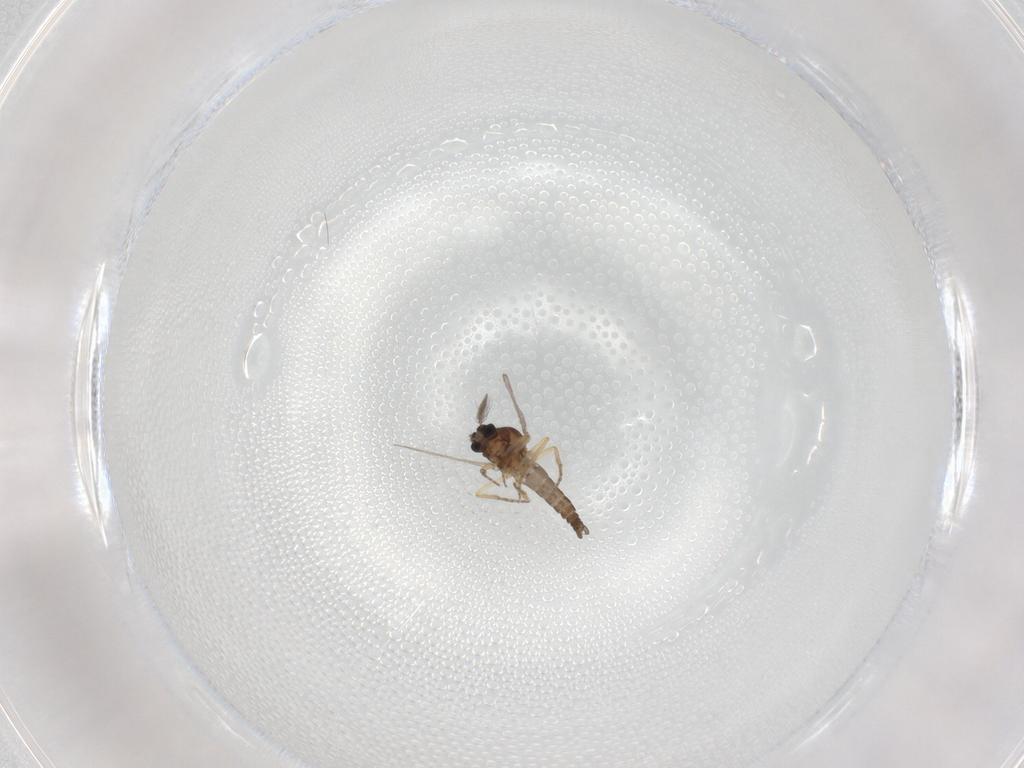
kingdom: Animalia
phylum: Arthropoda
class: Insecta
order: Diptera
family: Ceratopogonidae
